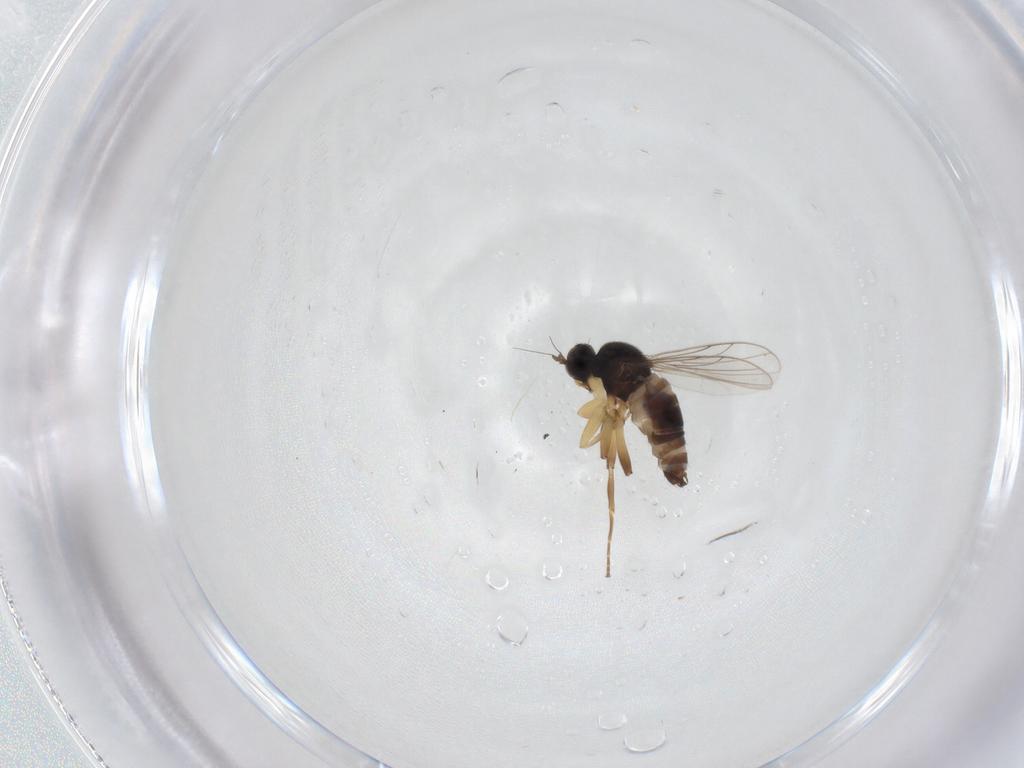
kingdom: Animalia
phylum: Arthropoda
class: Insecta
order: Diptera
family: Hybotidae
